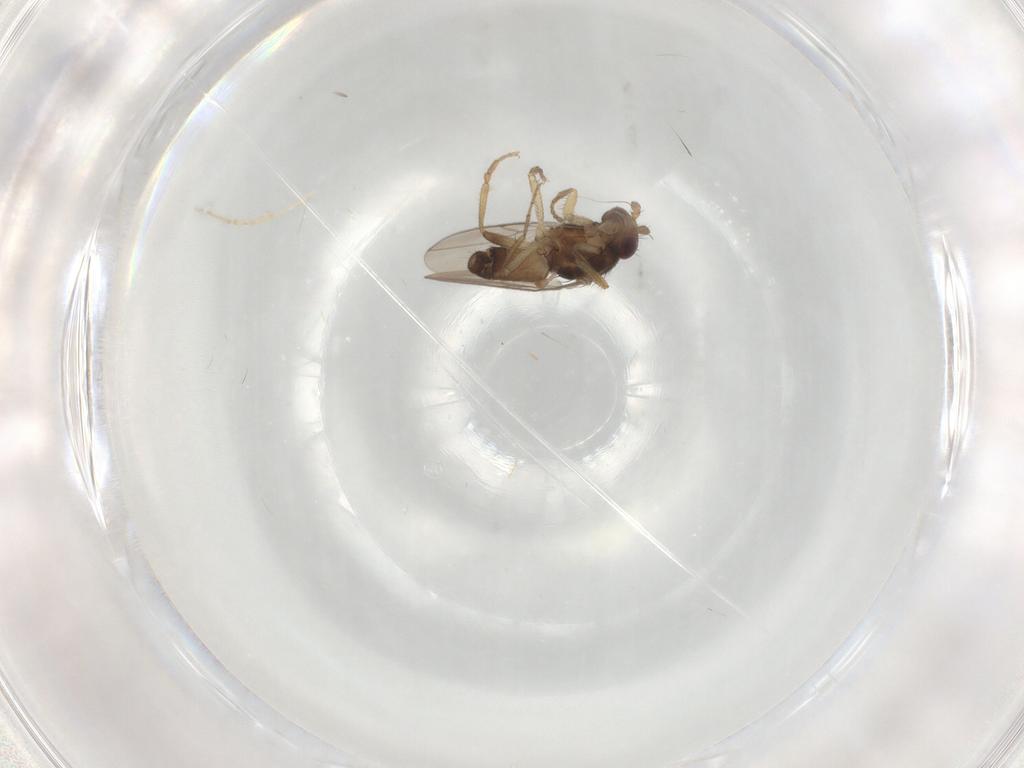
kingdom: Animalia
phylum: Arthropoda
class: Insecta
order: Diptera
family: Sphaeroceridae
